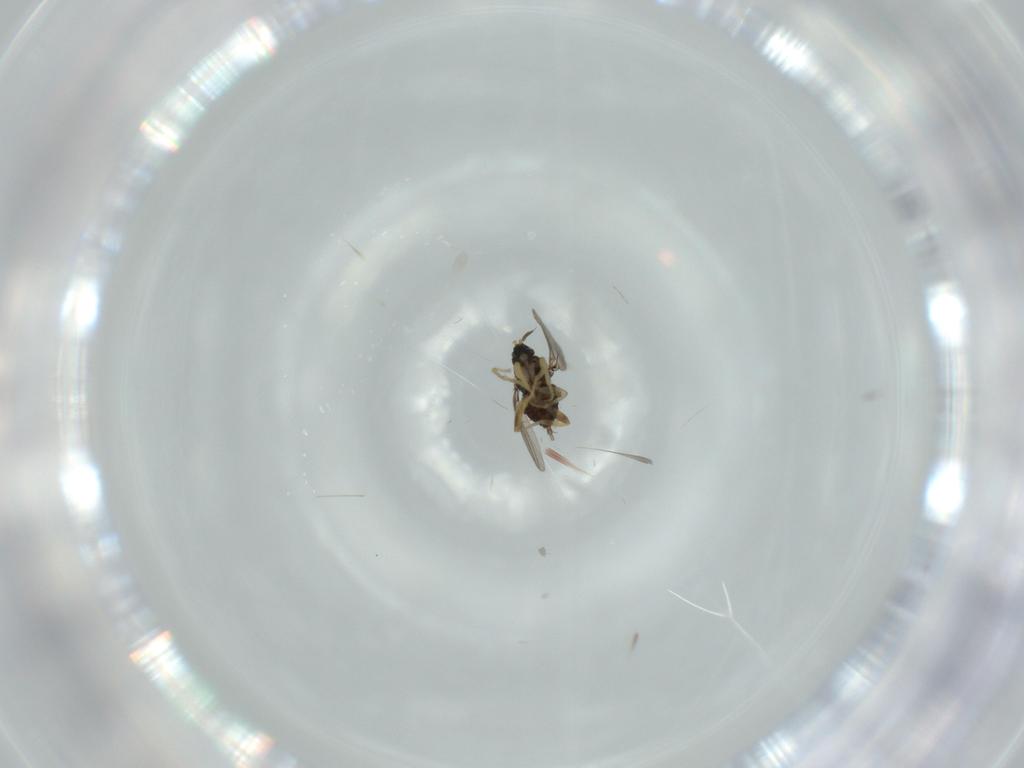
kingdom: Animalia
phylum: Arthropoda
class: Insecta
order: Diptera
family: Hybotidae
